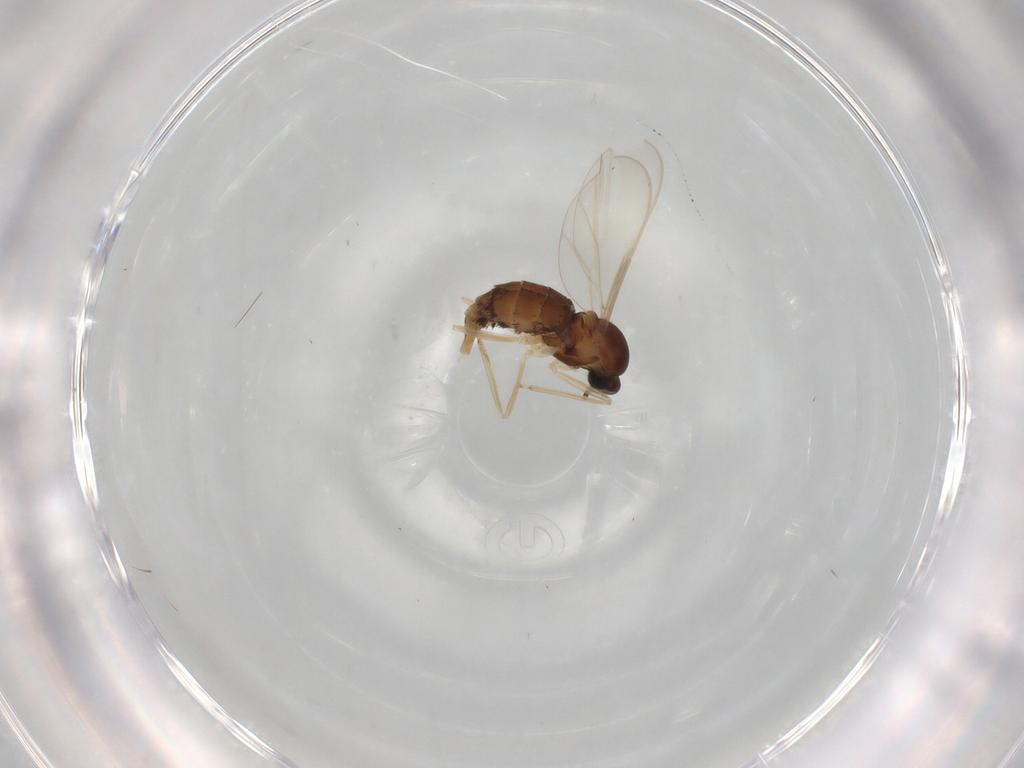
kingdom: Animalia
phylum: Arthropoda
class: Insecta
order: Diptera
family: Cecidomyiidae
